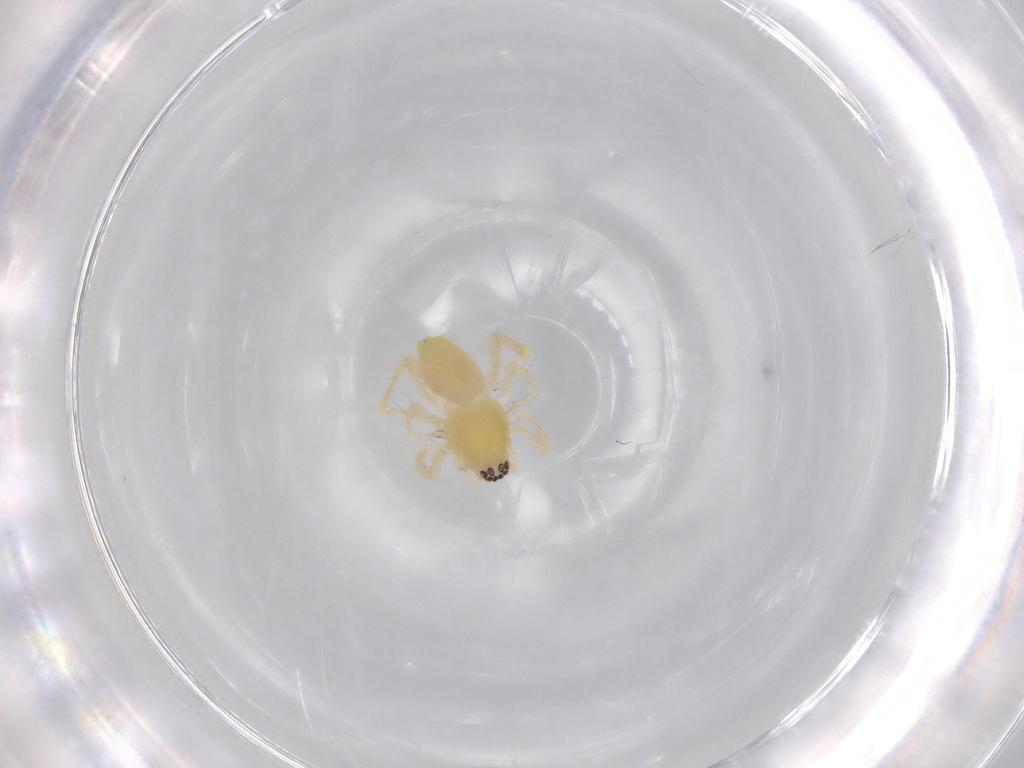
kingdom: Animalia
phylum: Arthropoda
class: Arachnida
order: Araneae
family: Anyphaenidae
